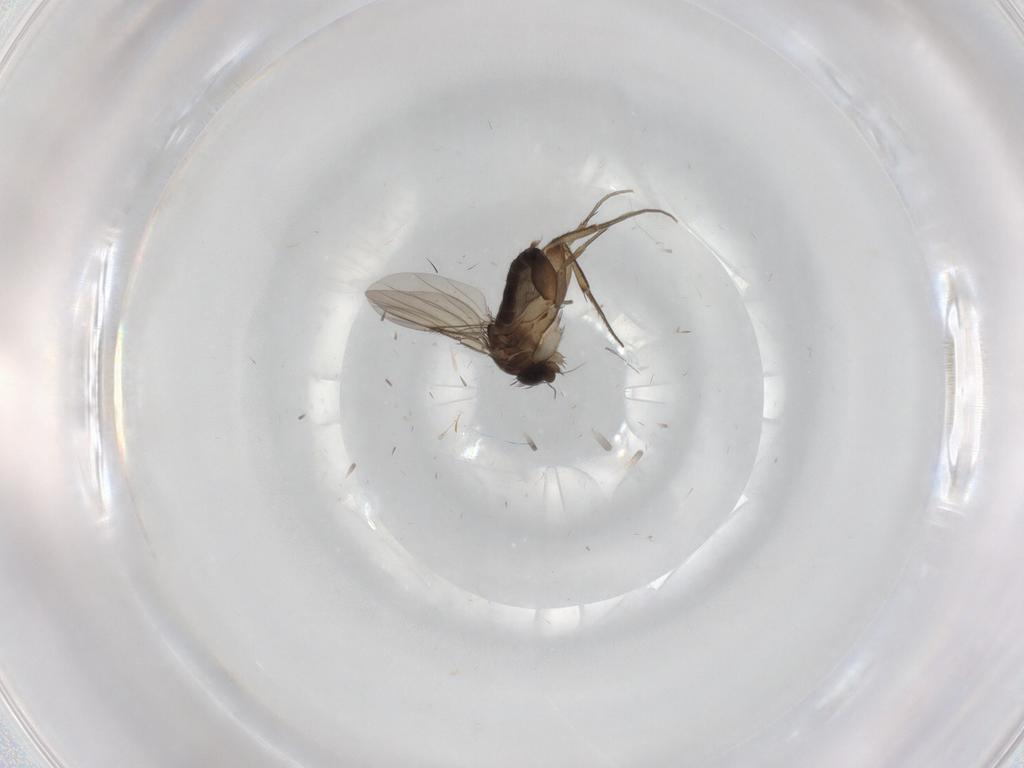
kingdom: Animalia
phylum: Arthropoda
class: Insecta
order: Diptera
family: Phoridae
